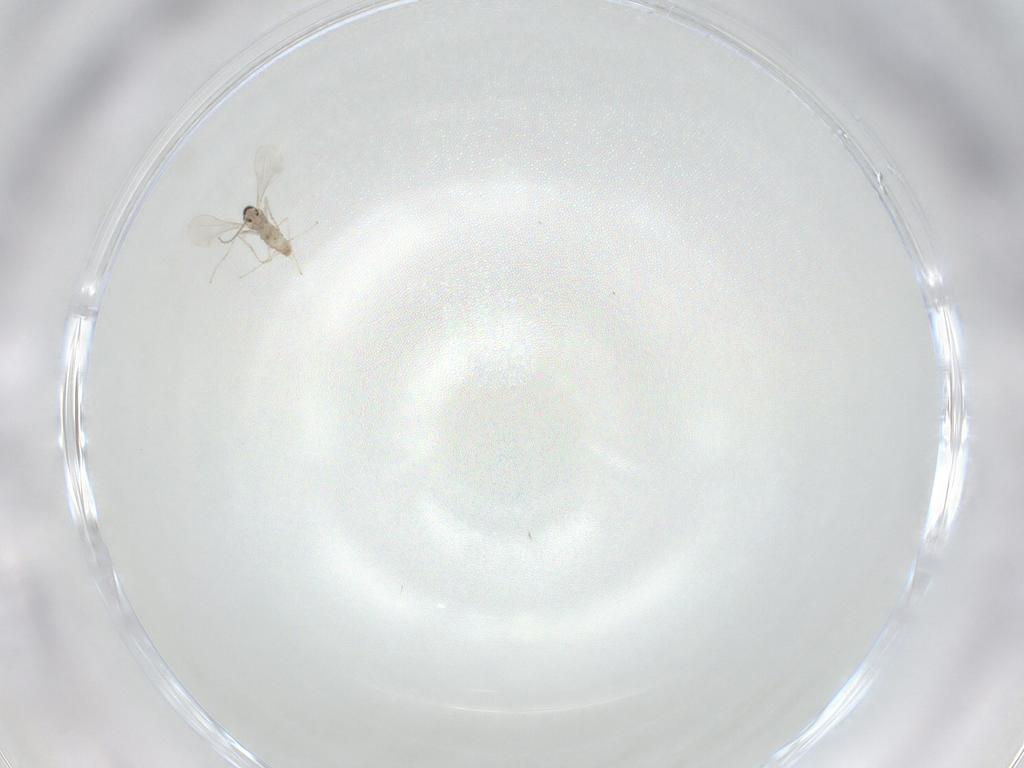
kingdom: Animalia
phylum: Arthropoda
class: Insecta
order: Diptera
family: Cecidomyiidae
